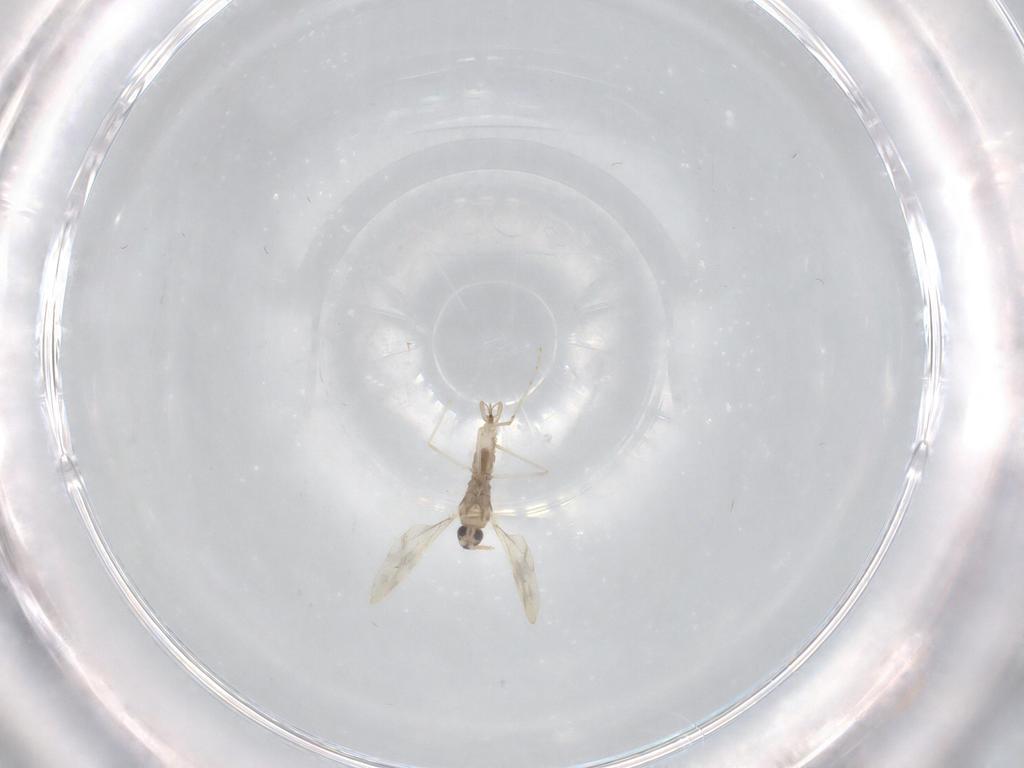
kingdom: Animalia
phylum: Arthropoda
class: Insecta
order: Diptera
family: Cecidomyiidae
